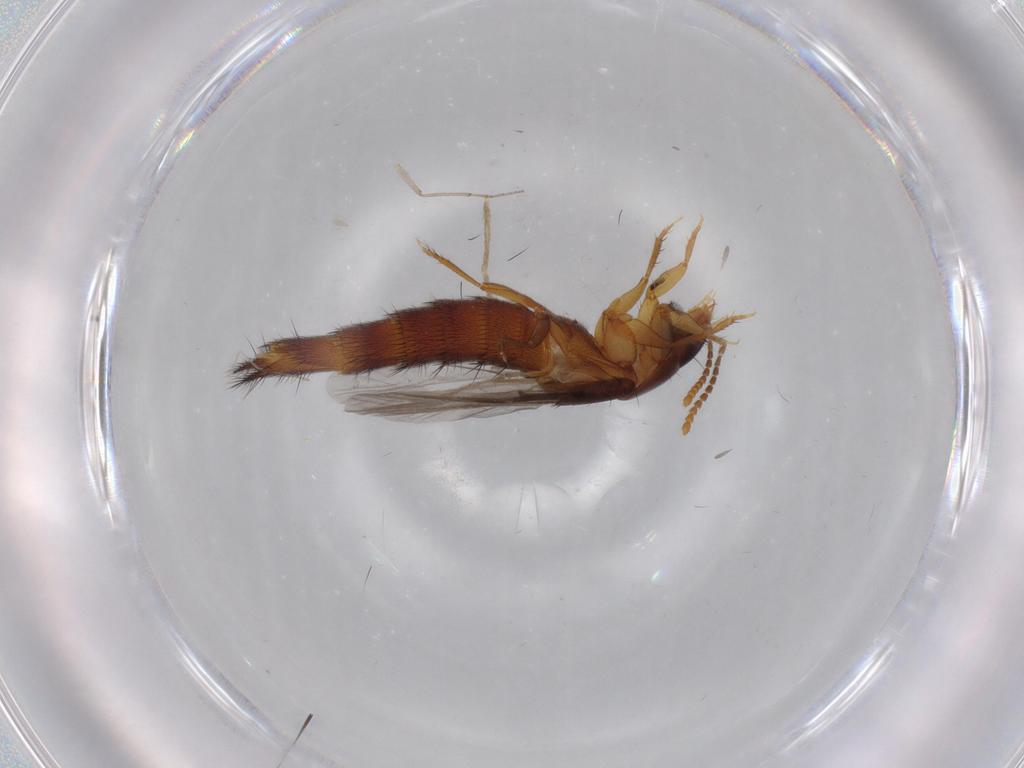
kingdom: Animalia
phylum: Arthropoda
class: Insecta
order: Coleoptera
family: Staphylinidae
